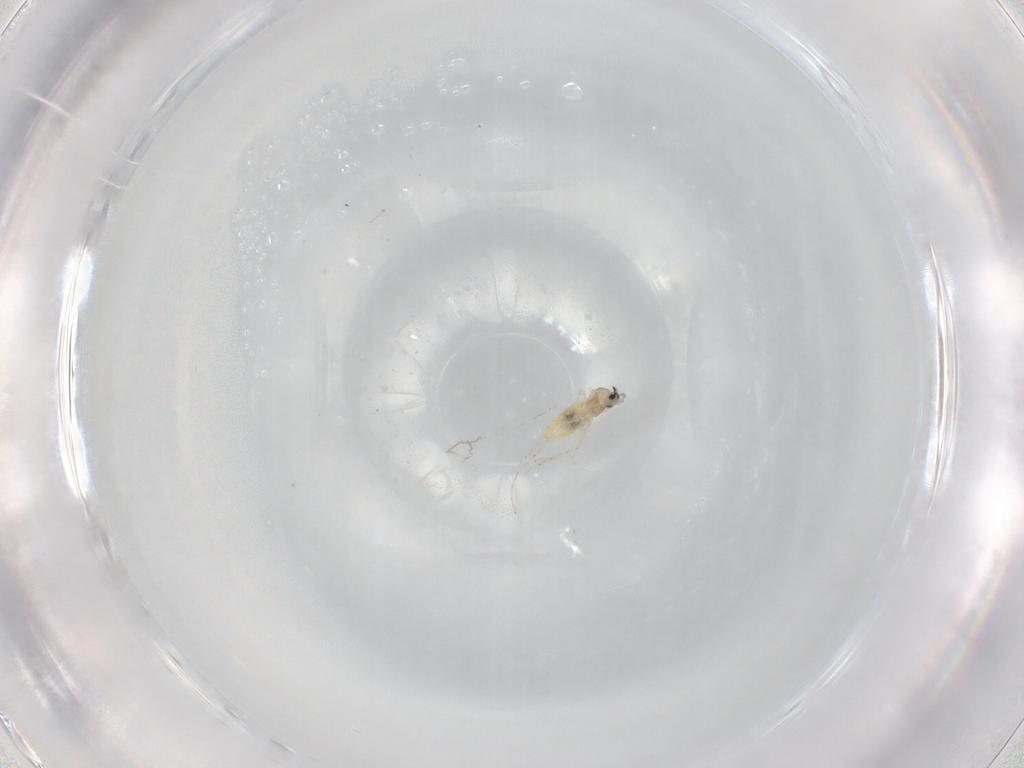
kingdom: Animalia
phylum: Arthropoda
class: Insecta
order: Diptera
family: Cecidomyiidae
